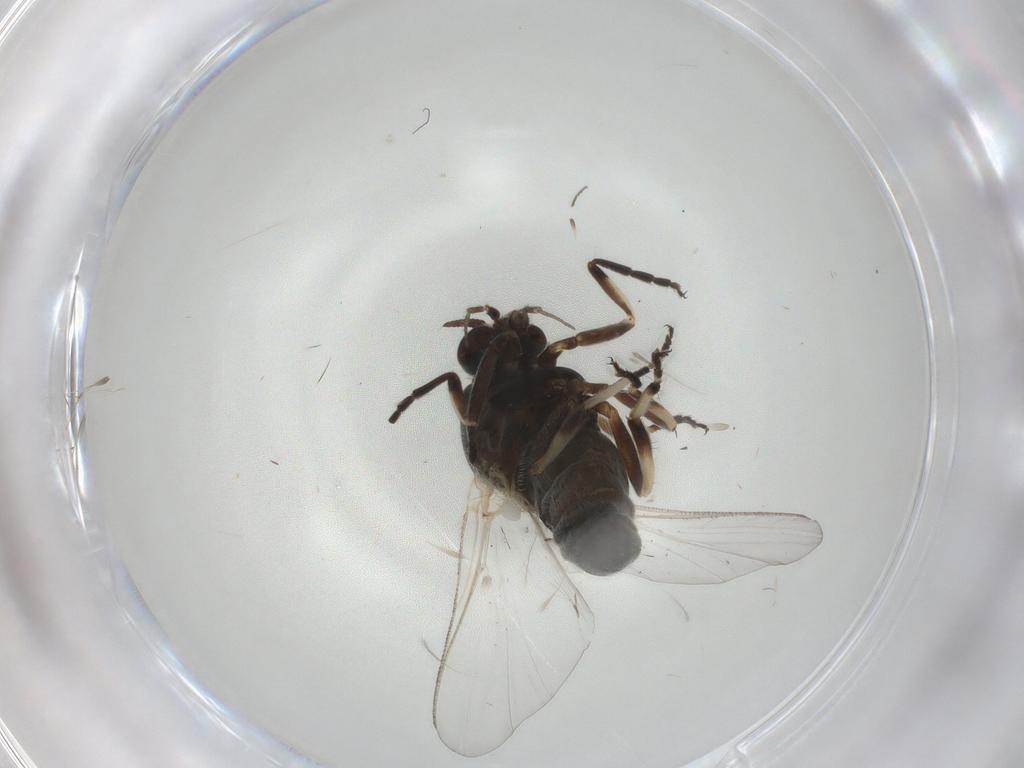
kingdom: Animalia
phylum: Arthropoda
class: Insecta
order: Diptera
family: Simuliidae
